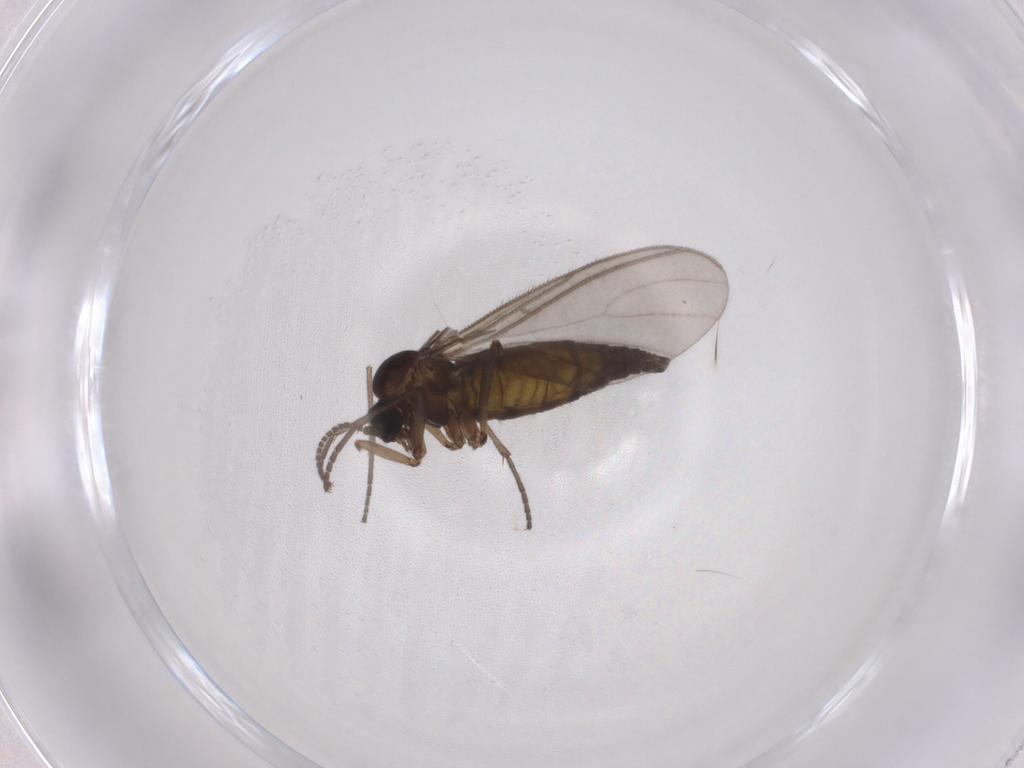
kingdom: Animalia
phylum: Arthropoda
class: Insecta
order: Diptera
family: Sciaridae
